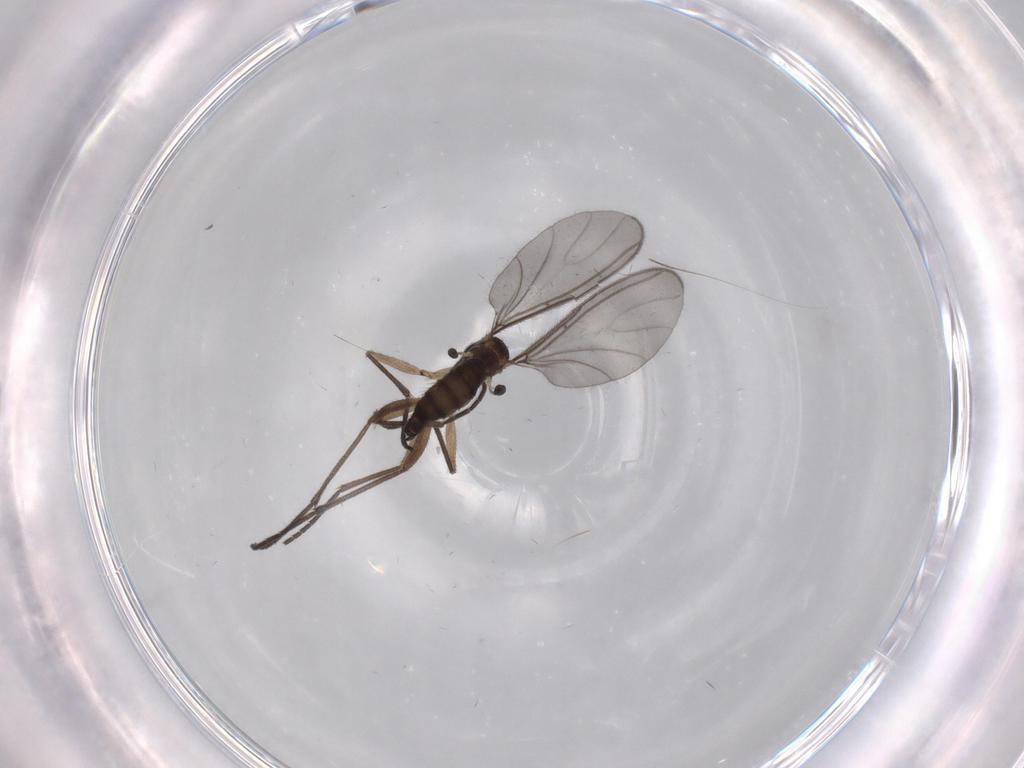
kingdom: Animalia
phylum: Arthropoda
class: Insecta
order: Diptera
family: Sciaridae
